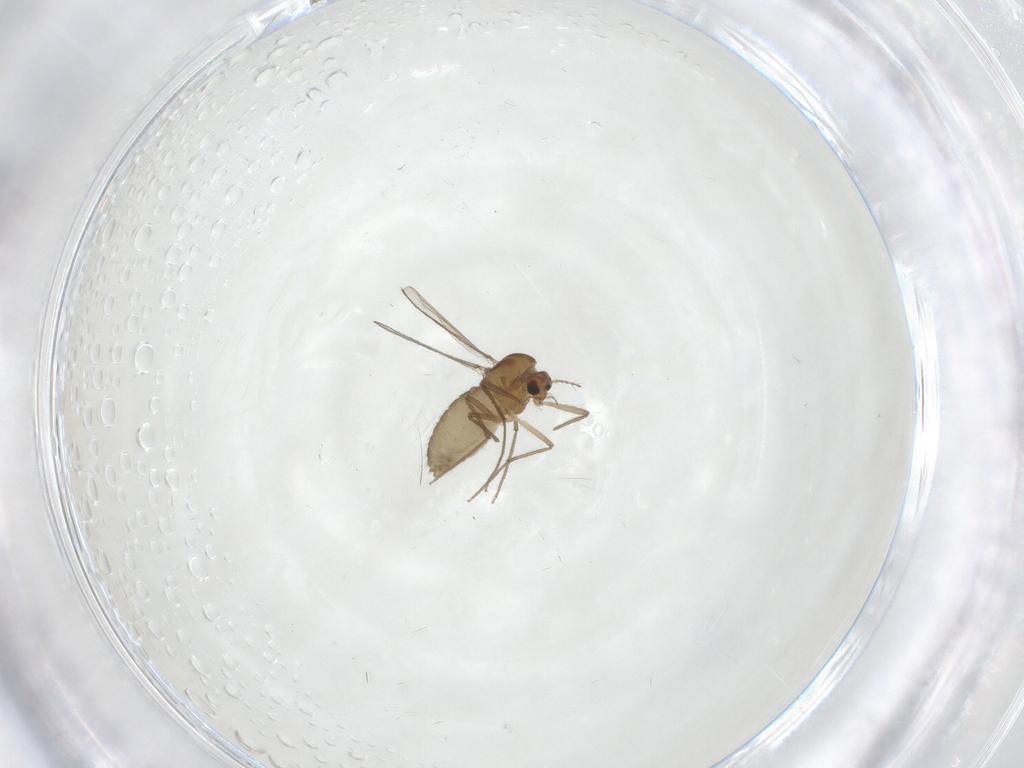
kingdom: Animalia
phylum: Arthropoda
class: Insecta
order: Diptera
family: Chironomidae
